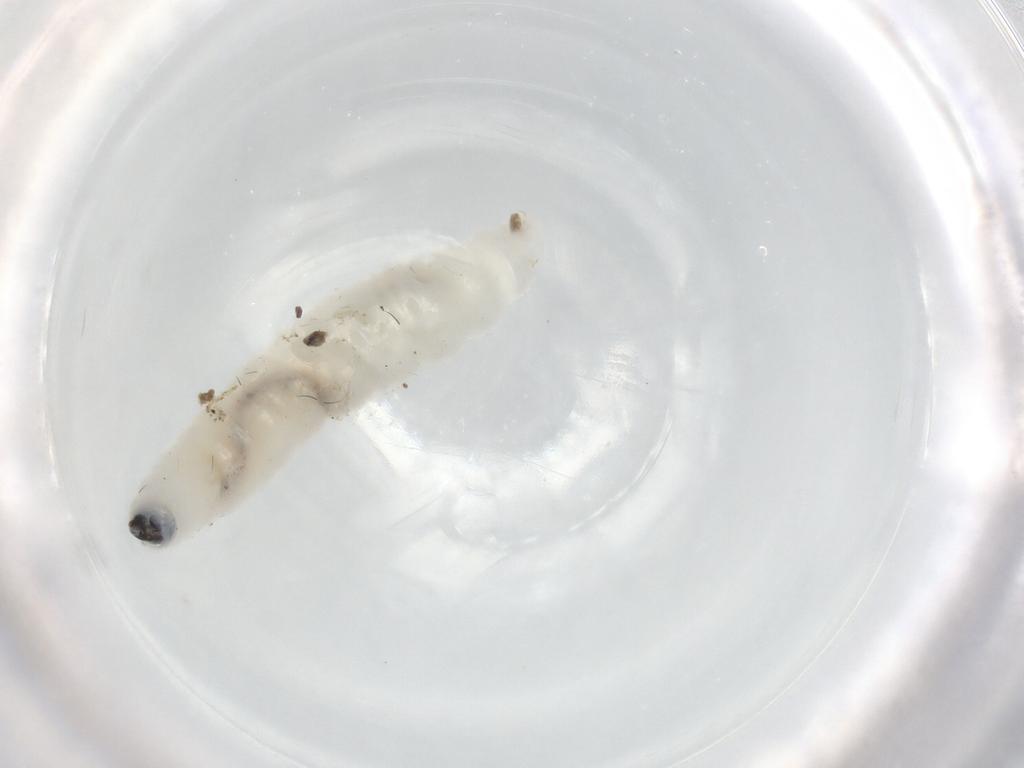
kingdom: Animalia
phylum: Arthropoda
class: Insecta
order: Diptera
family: Sciaridae
